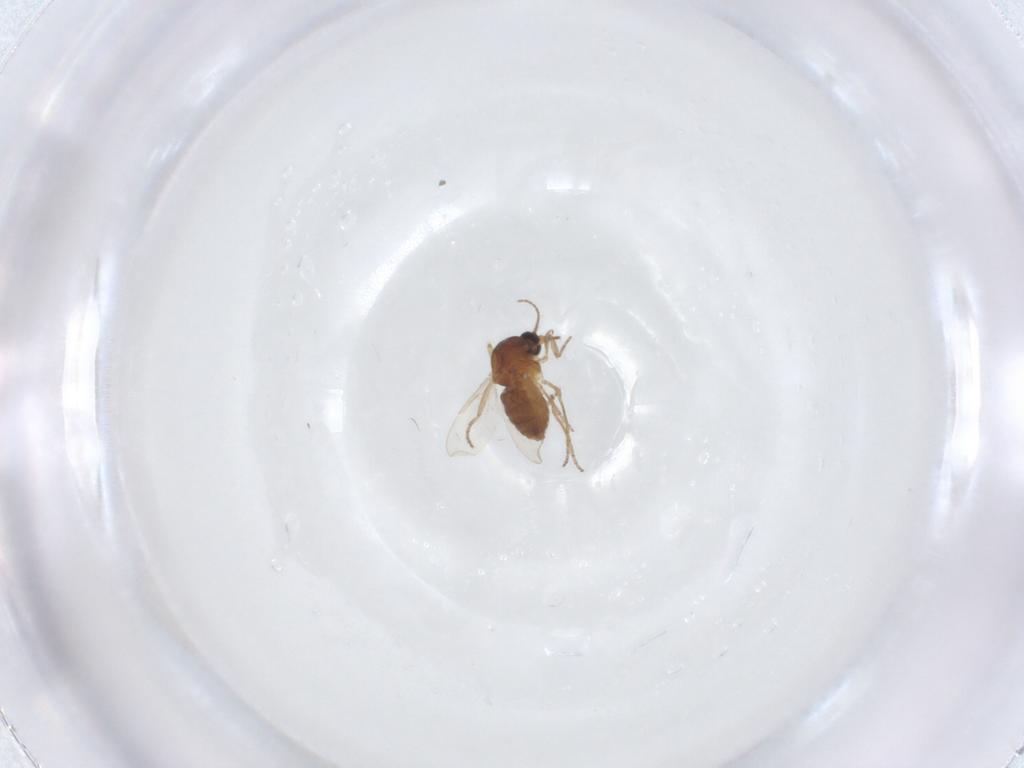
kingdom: Animalia
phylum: Arthropoda
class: Insecta
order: Diptera
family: Ceratopogonidae
